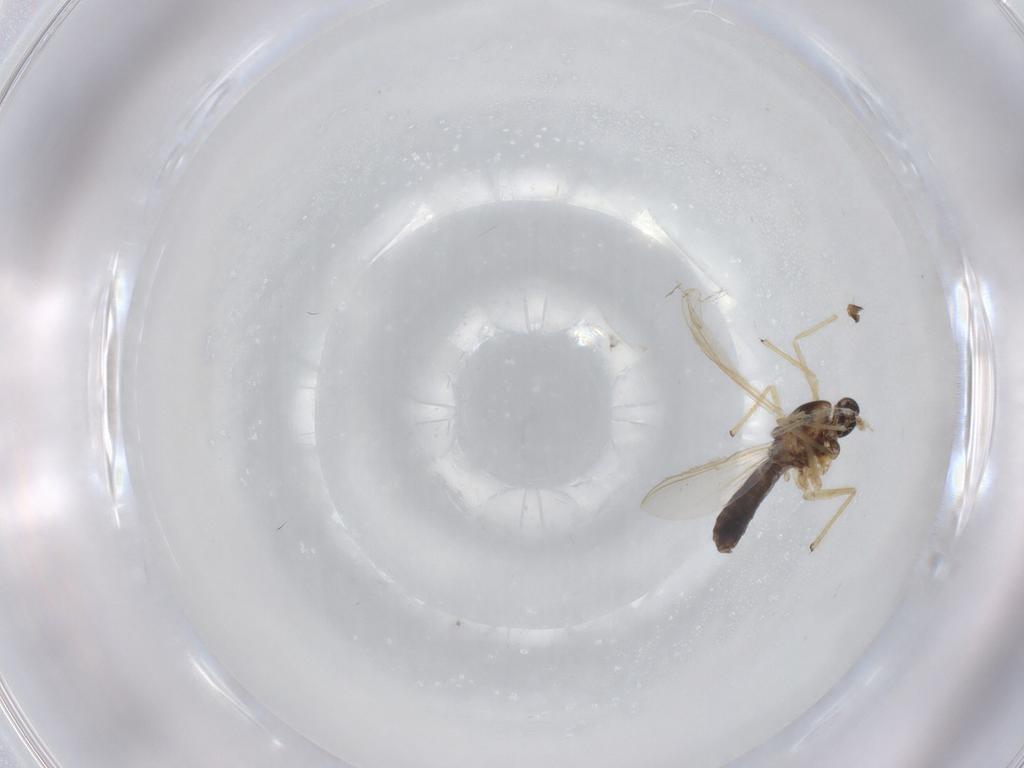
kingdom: Animalia
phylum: Arthropoda
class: Insecta
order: Diptera
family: Chironomidae
